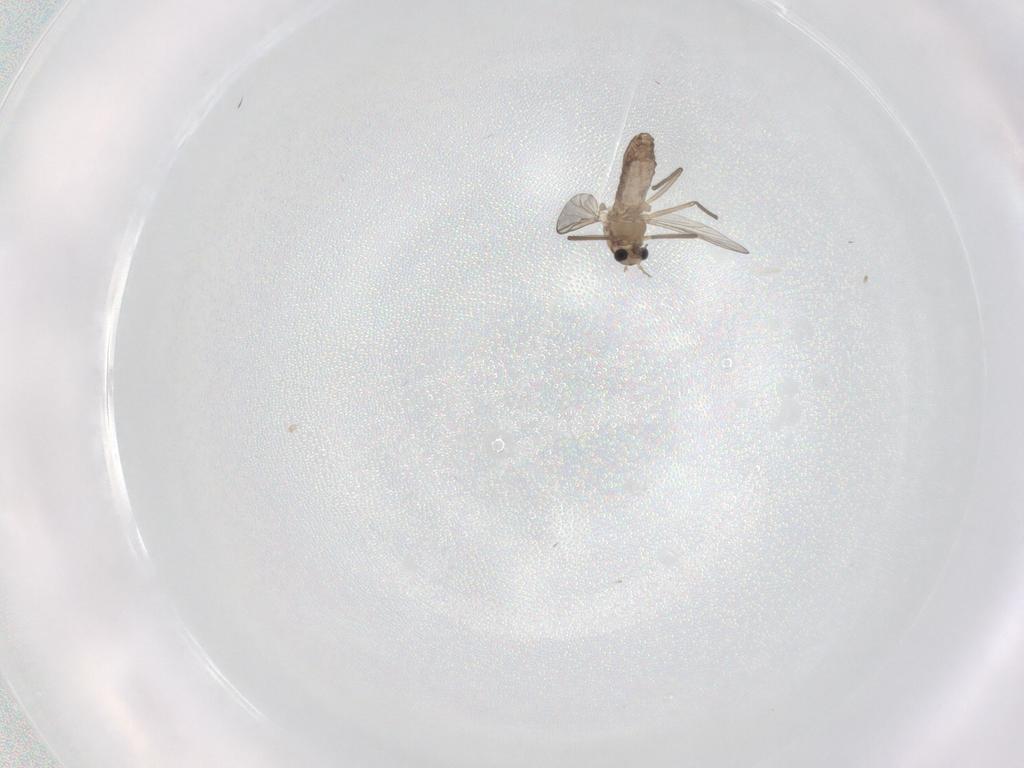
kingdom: Animalia
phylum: Arthropoda
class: Insecta
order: Diptera
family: Chironomidae
